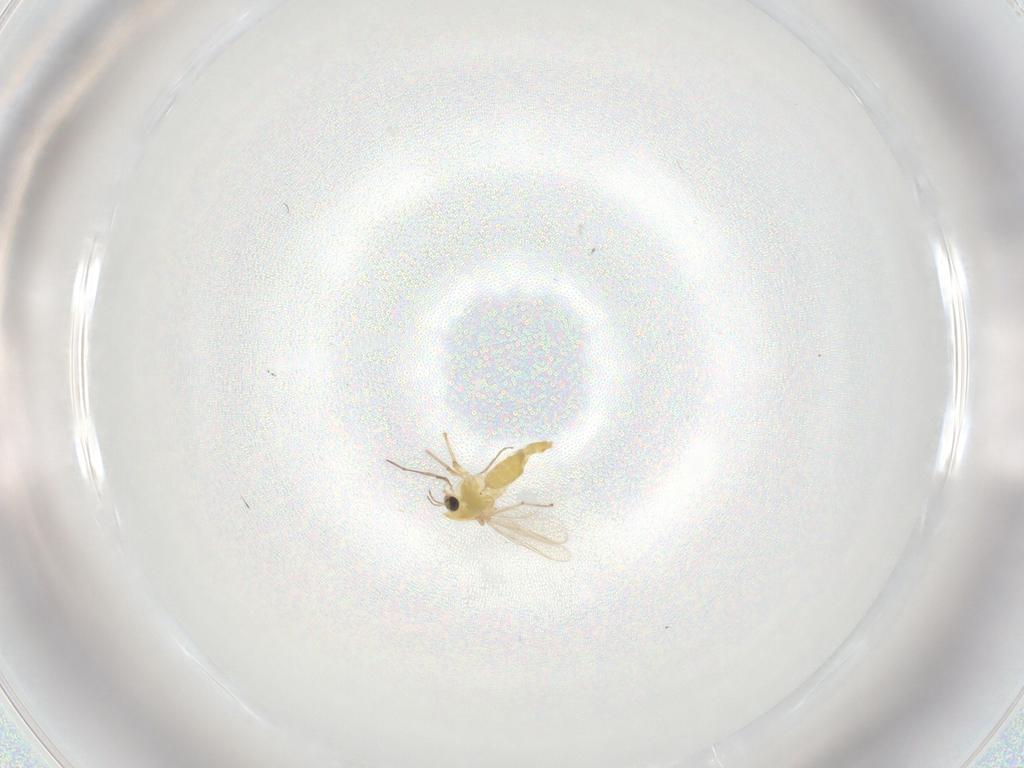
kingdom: Animalia
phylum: Arthropoda
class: Insecta
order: Diptera
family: Chironomidae
